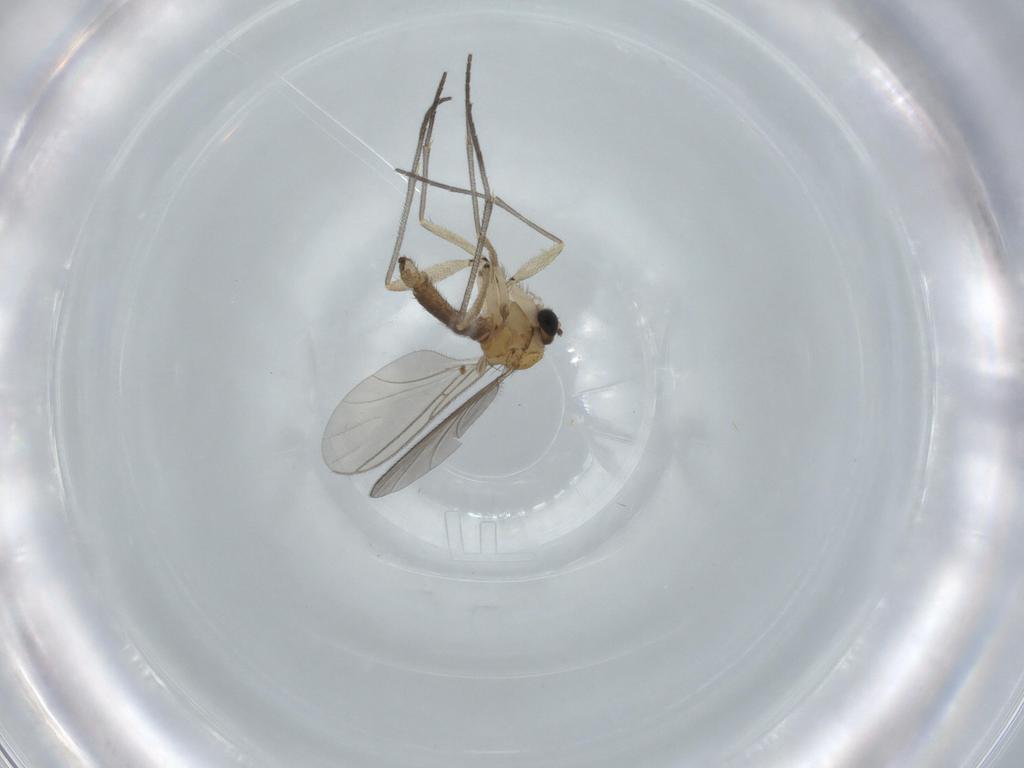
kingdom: Animalia
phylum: Arthropoda
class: Insecta
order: Diptera
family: Sciaridae
